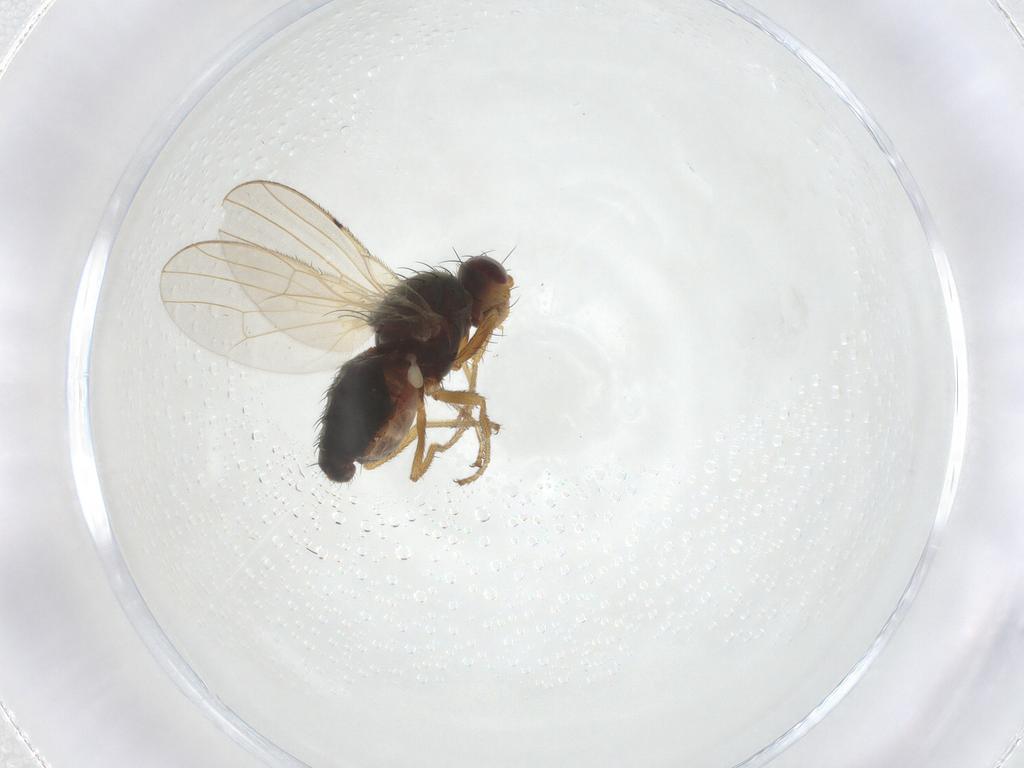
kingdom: Animalia
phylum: Arthropoda
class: Insecta
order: Diptera
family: Heleomyzidae
